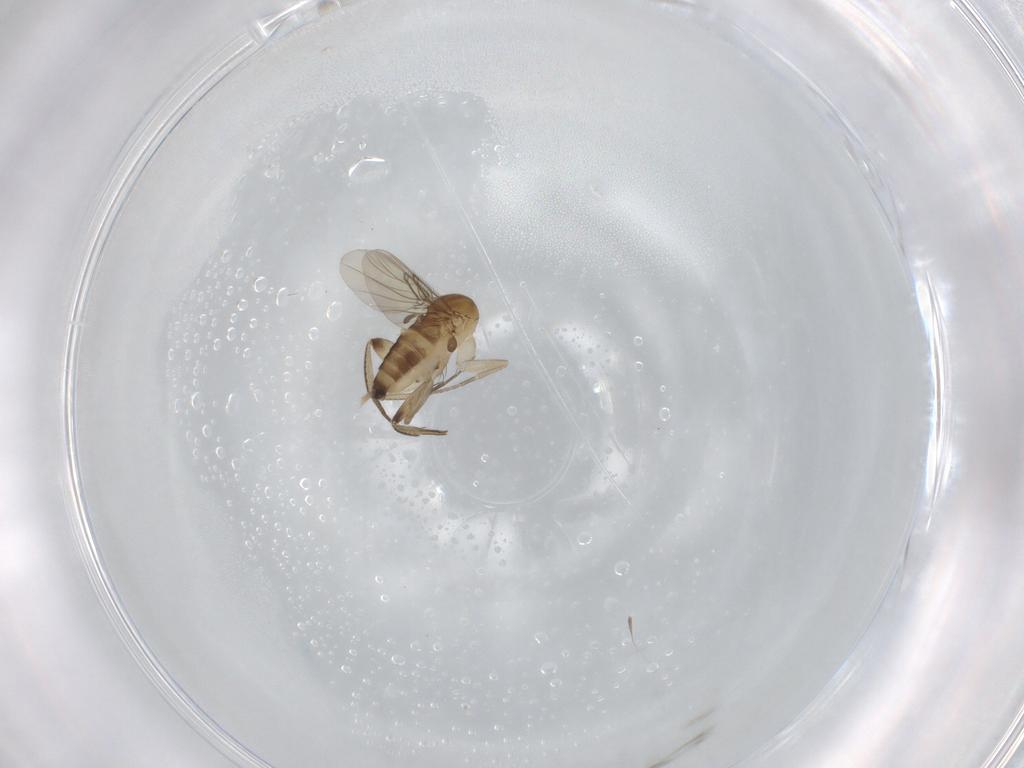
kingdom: Animalia
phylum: Arthropoda
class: Insecta
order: Diptera
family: Phoridae
